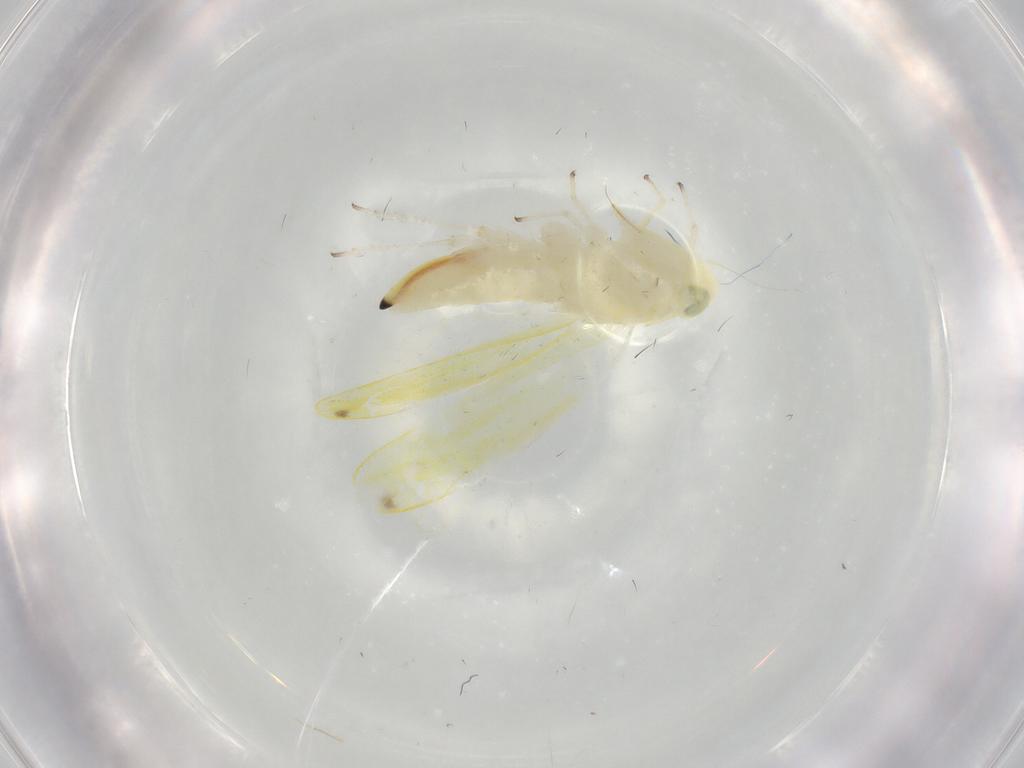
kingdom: Animalia
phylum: Arthropoda
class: Insecta
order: Hemiptera
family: Cicadellidae
